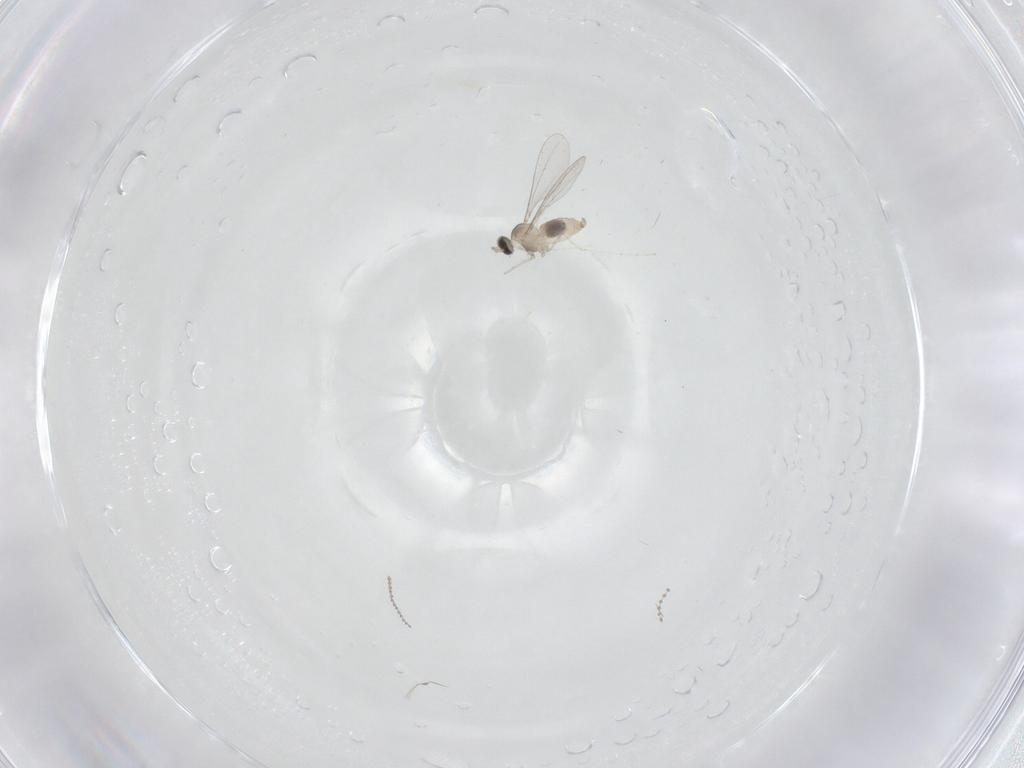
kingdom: Animalia
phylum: Arthropoda
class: Insecta
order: Diptera
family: Cecidomyiidae
